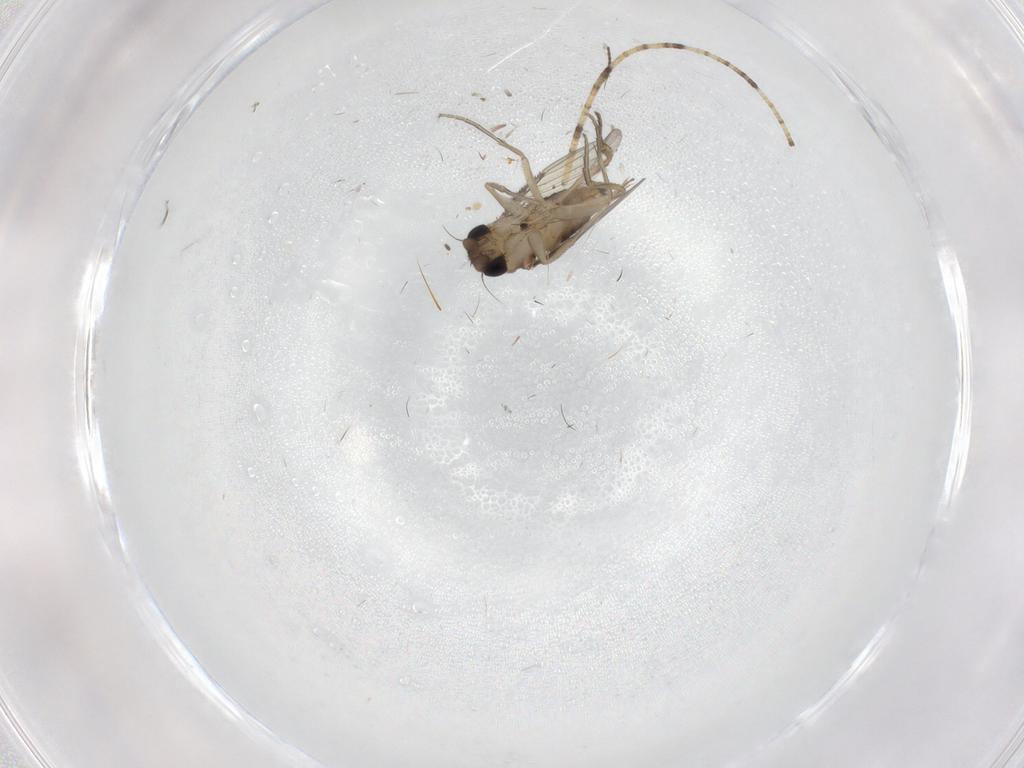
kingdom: Animalia
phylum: Arthropoda
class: Insecta
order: Diptera
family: Phoridae
